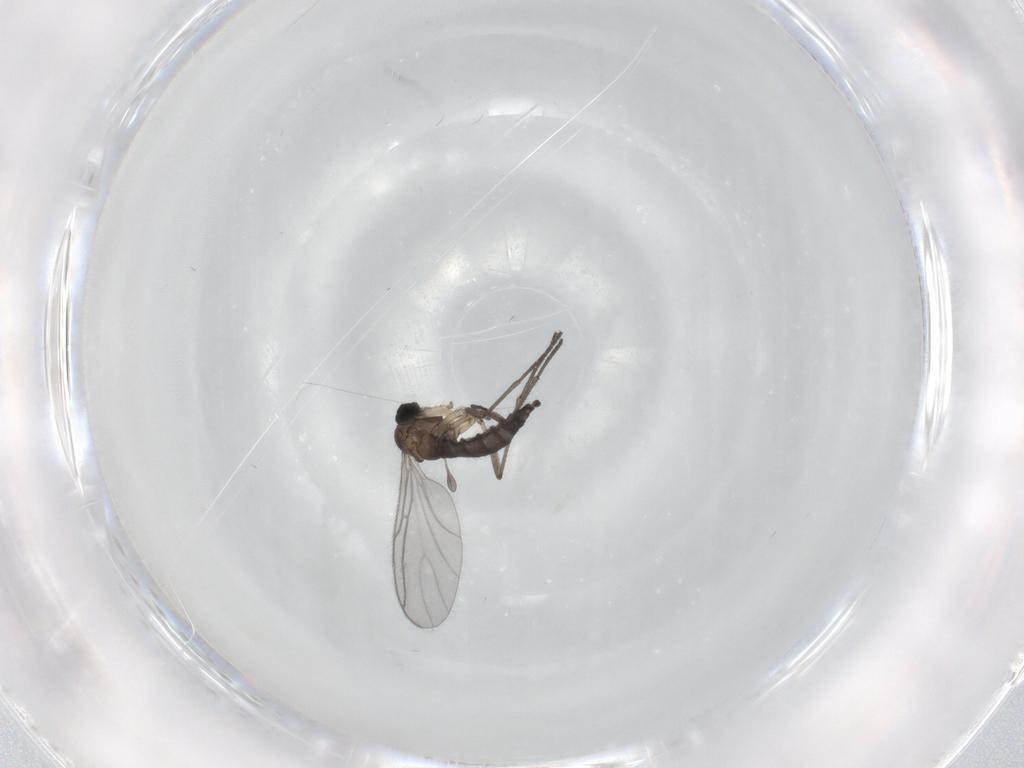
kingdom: Animalia
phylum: Arthropoda
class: Insecta
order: Diptera
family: Sciaridae
